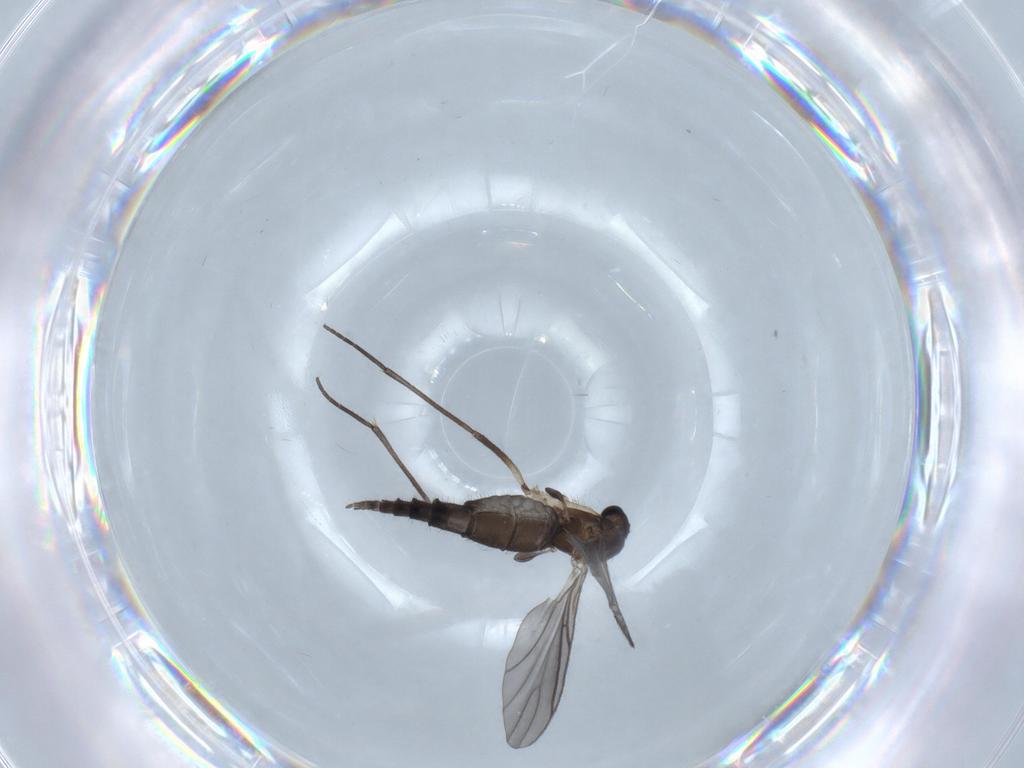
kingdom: Animalia
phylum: Arthropoda
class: Insecta
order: Diptera
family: Sciaridae
